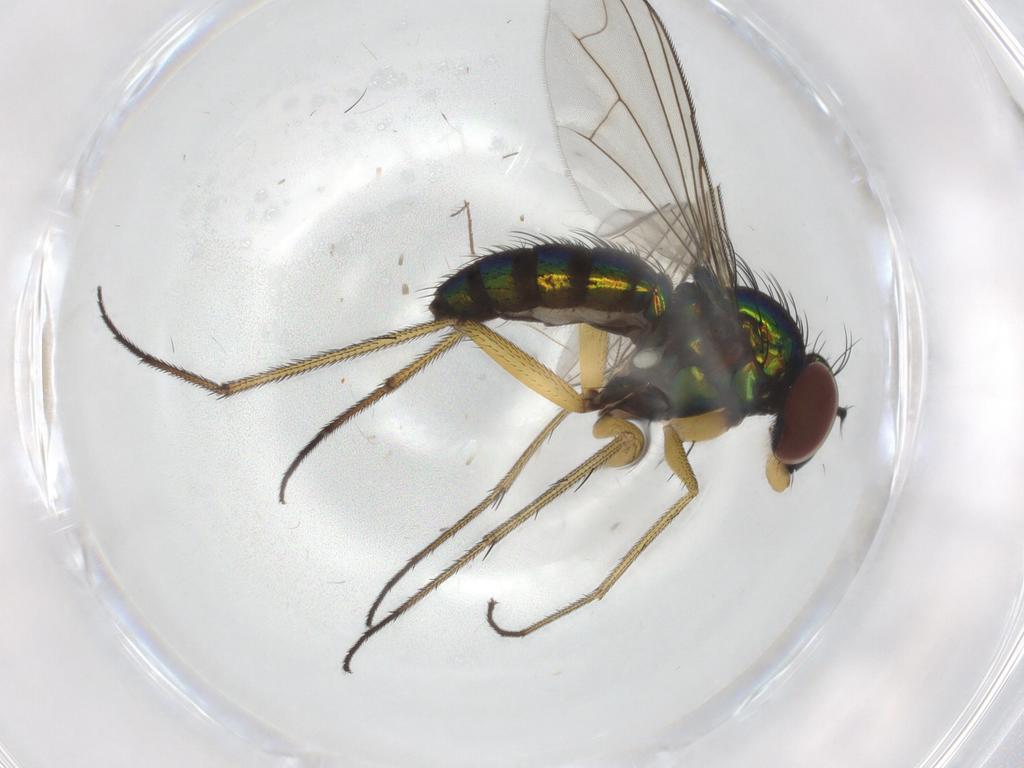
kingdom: Animalia
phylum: Arthropoda
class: Insecta
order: Diptera
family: Dolichopodidae
